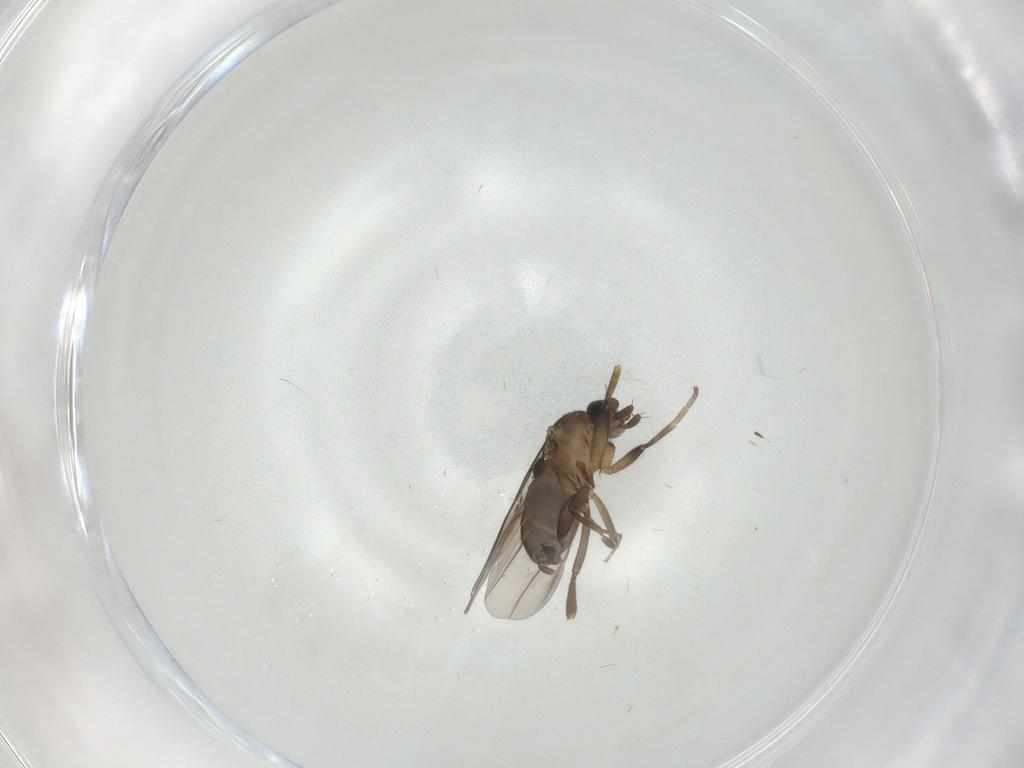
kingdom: Animalia
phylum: Arthropoda
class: Insecta
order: Diptera
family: Phoridae
